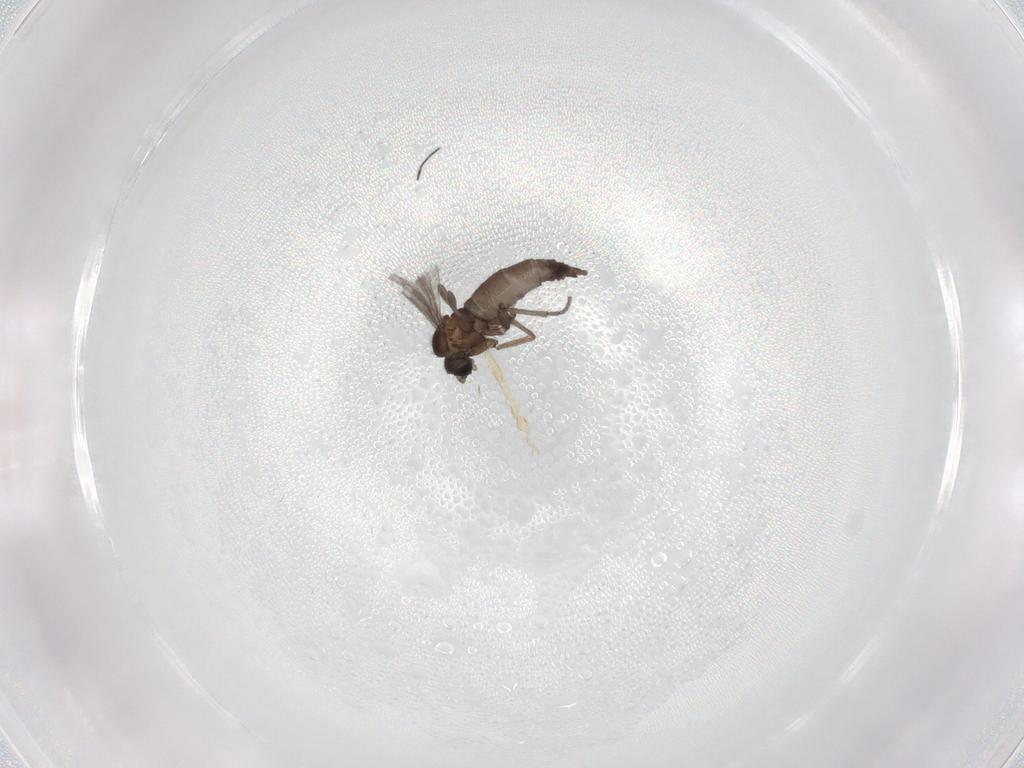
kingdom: Animalia
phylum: Arthropoda
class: Insecta
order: Diptera
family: Sciaridae
